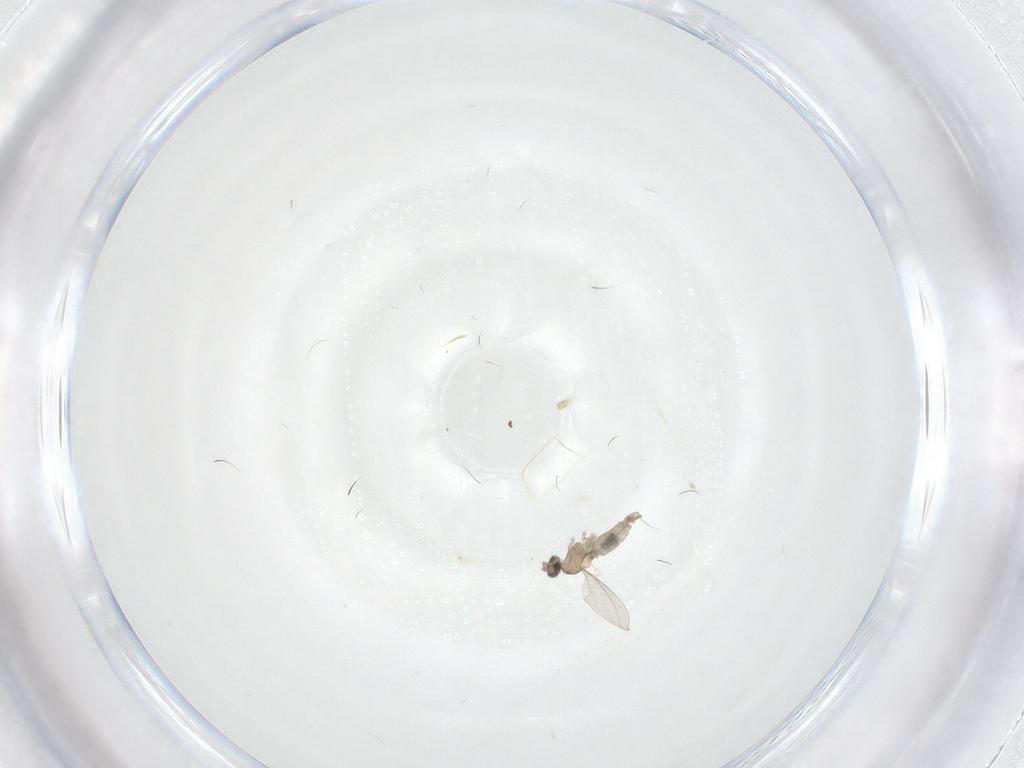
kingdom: Animalia
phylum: Arthropoda
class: Insecta
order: Diptera
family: Cecidomyiidae
